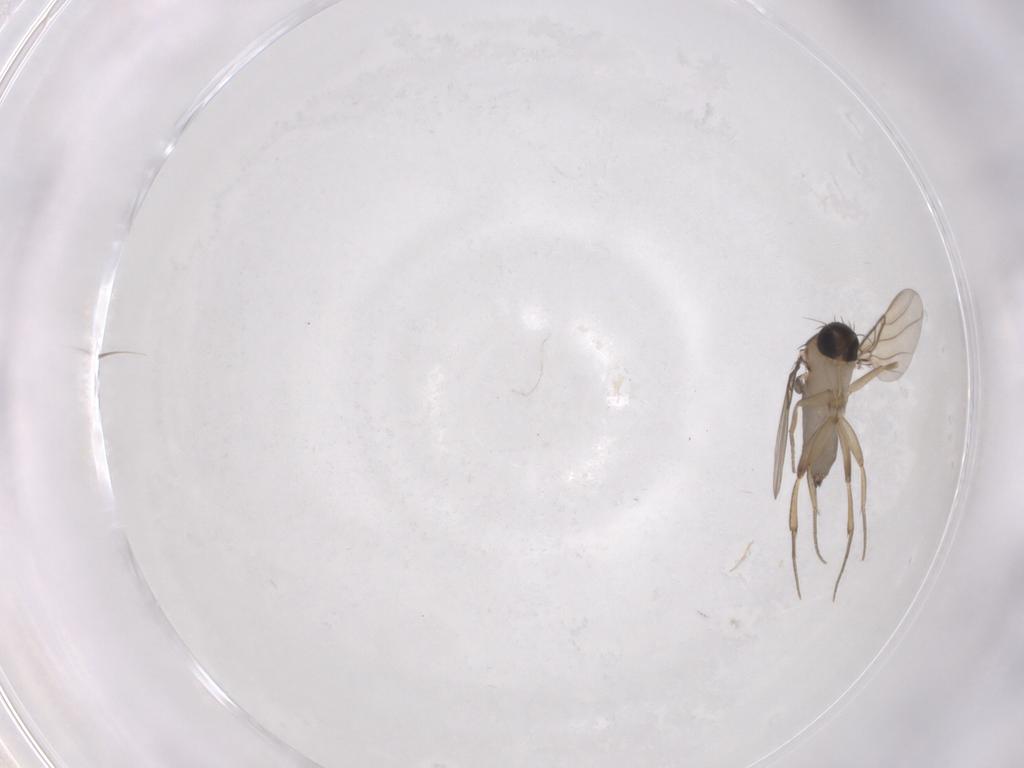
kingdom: Animalia
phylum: Arthropoda
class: Insecta
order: Diptera
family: Phoridae
